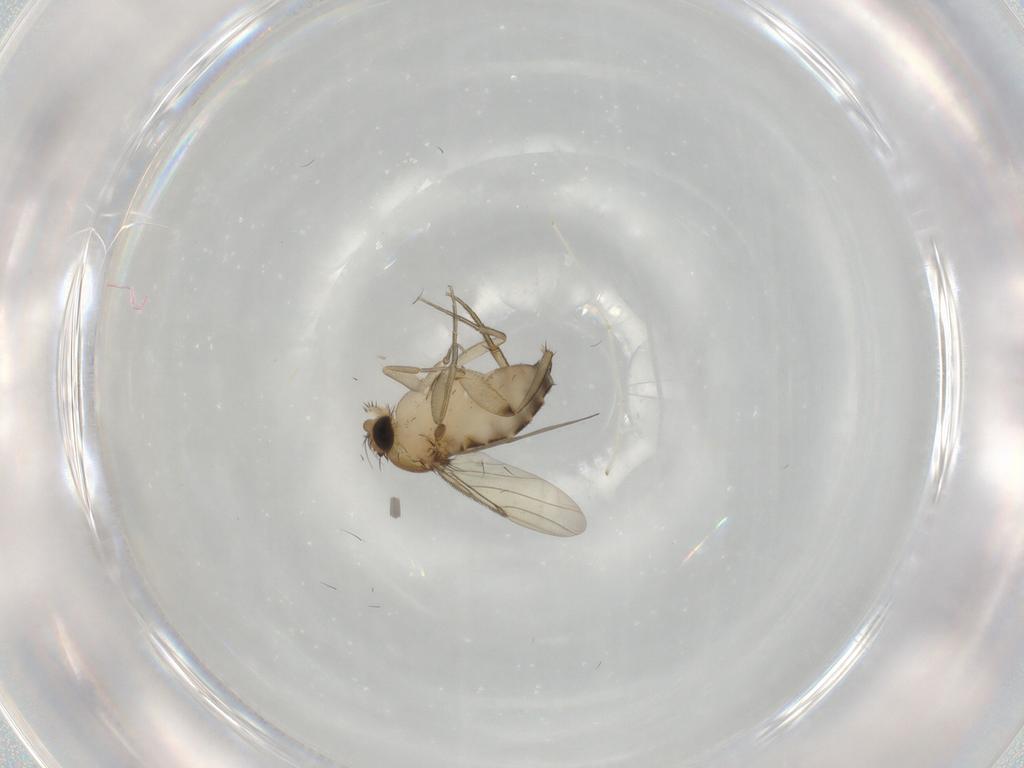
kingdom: Animalia
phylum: Arthropoda
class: Insecta
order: Diptera
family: Phoridae
